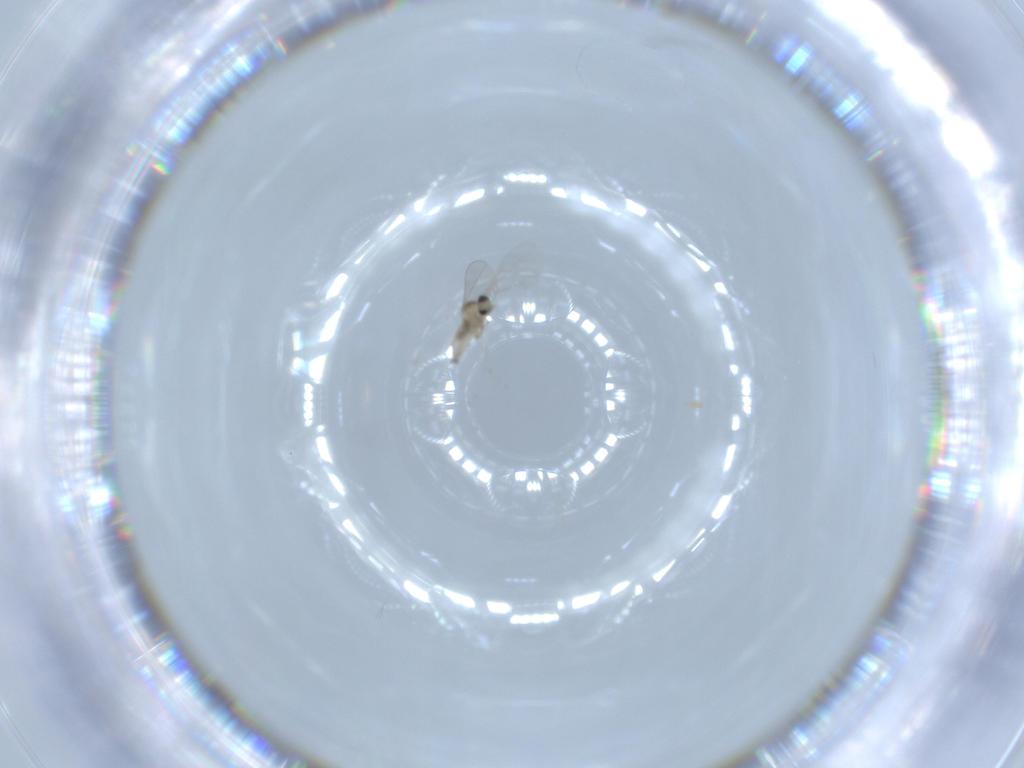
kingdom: Animalia
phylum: Arthropoda
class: Insecta
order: Diptera
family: Cecidomyiidae
